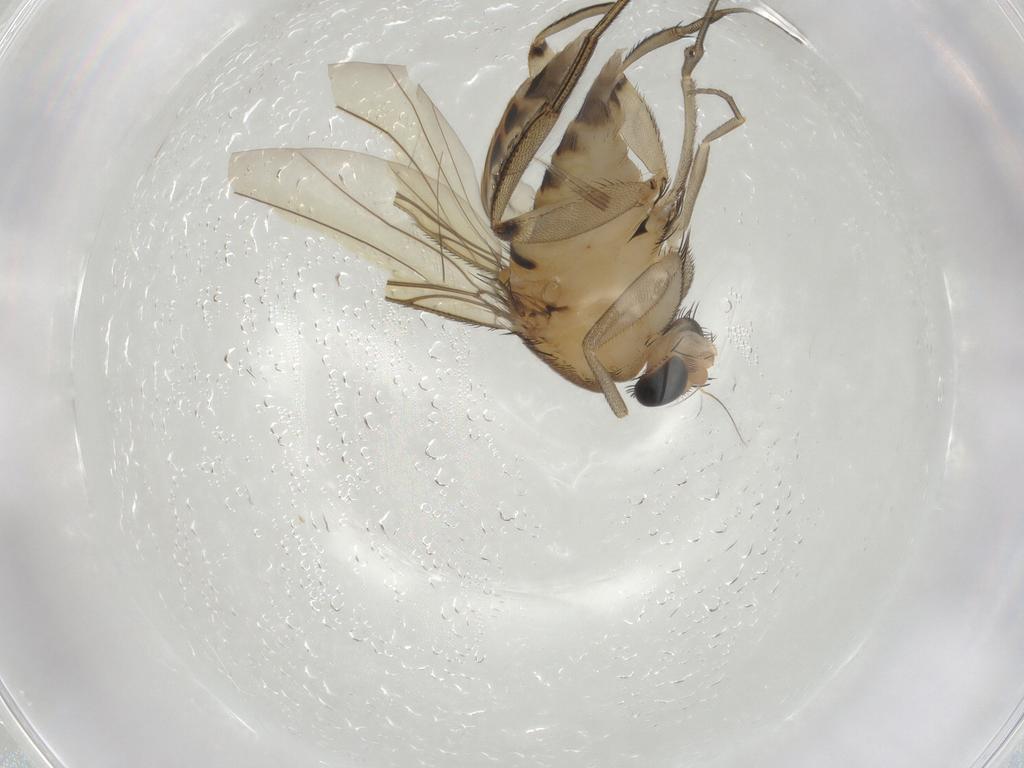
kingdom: Animalia
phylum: Arthropoda
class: Insecta
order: Diptera
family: Phoridae
